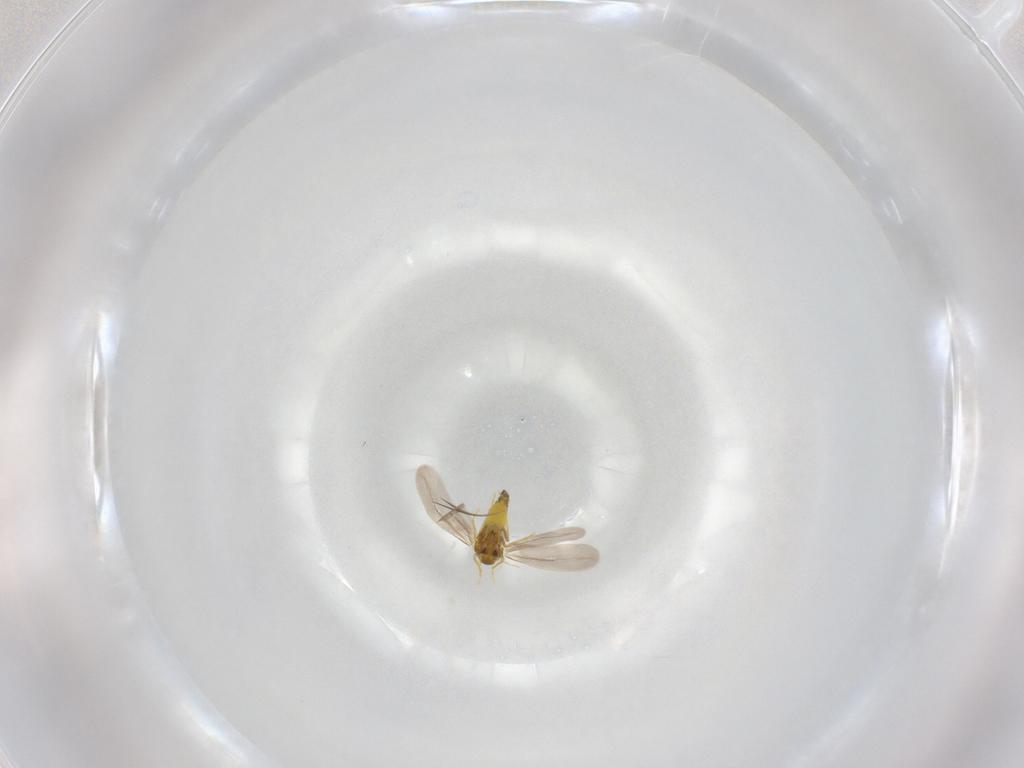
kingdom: Animalia
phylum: Arthropoda
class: Insecta
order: Hemiptera
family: Aleyrodidae
